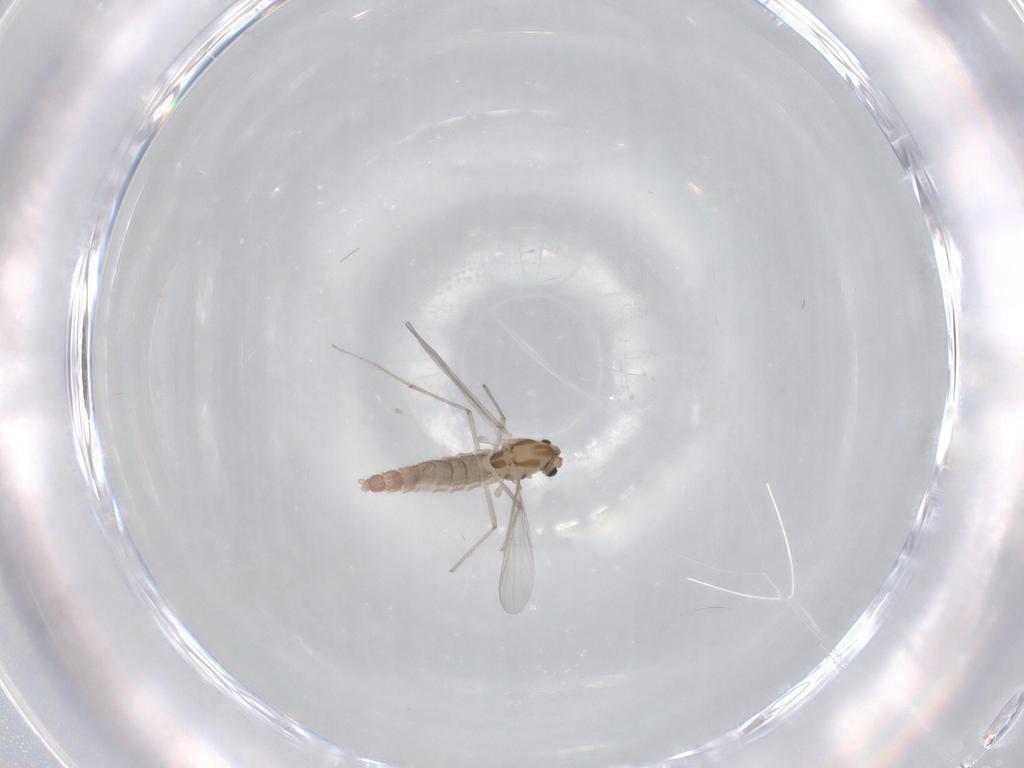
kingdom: Animalia
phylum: Arthropoda
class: Insecta
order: Diptera
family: Chironomidae
